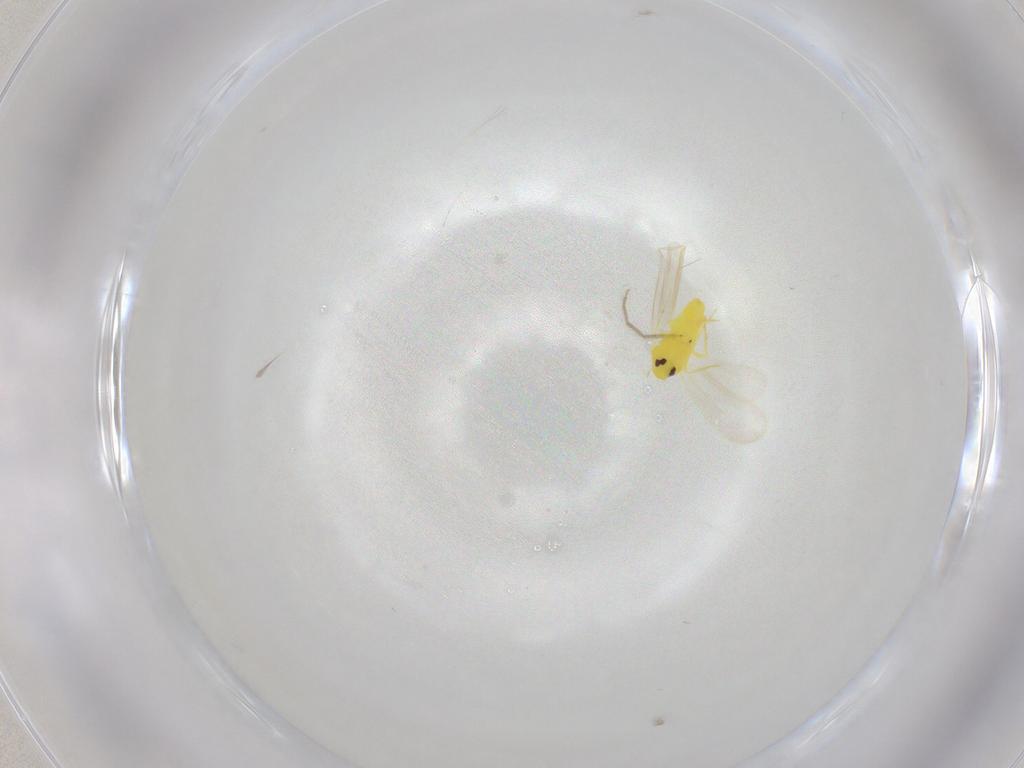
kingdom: Animalia
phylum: Arthropoda
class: Insecta
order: Hemiptera
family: Aleyrodidae
